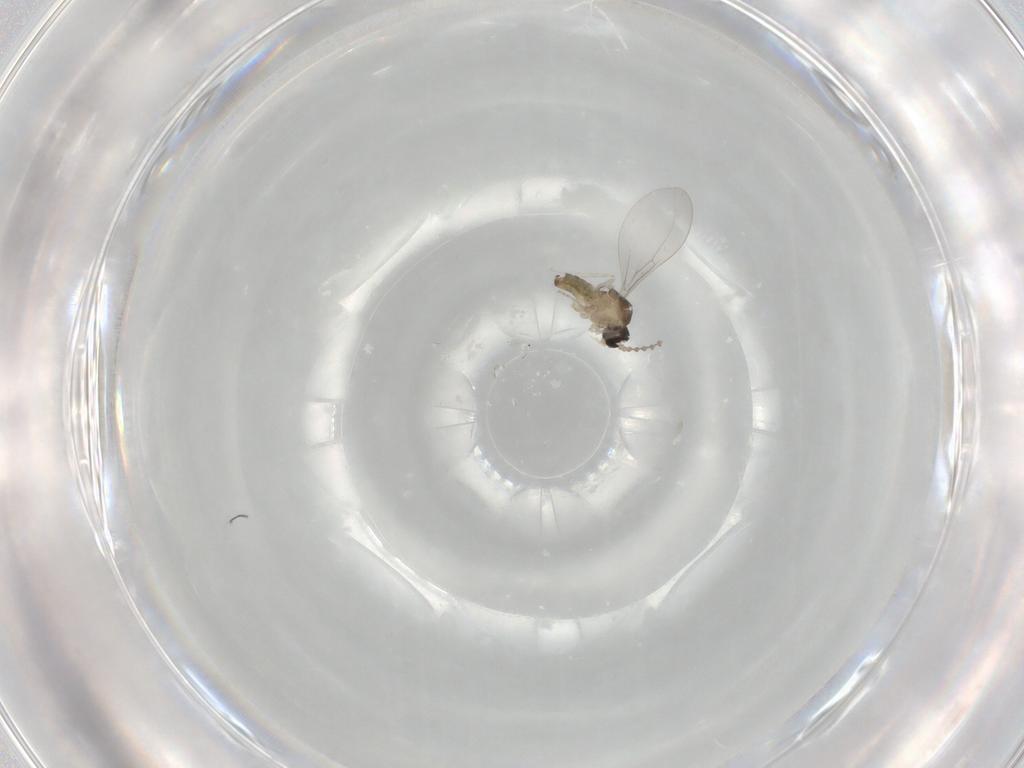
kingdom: Animalia
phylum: Arthropoda
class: Insecta
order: Diptera
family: Cecidomyiidae
